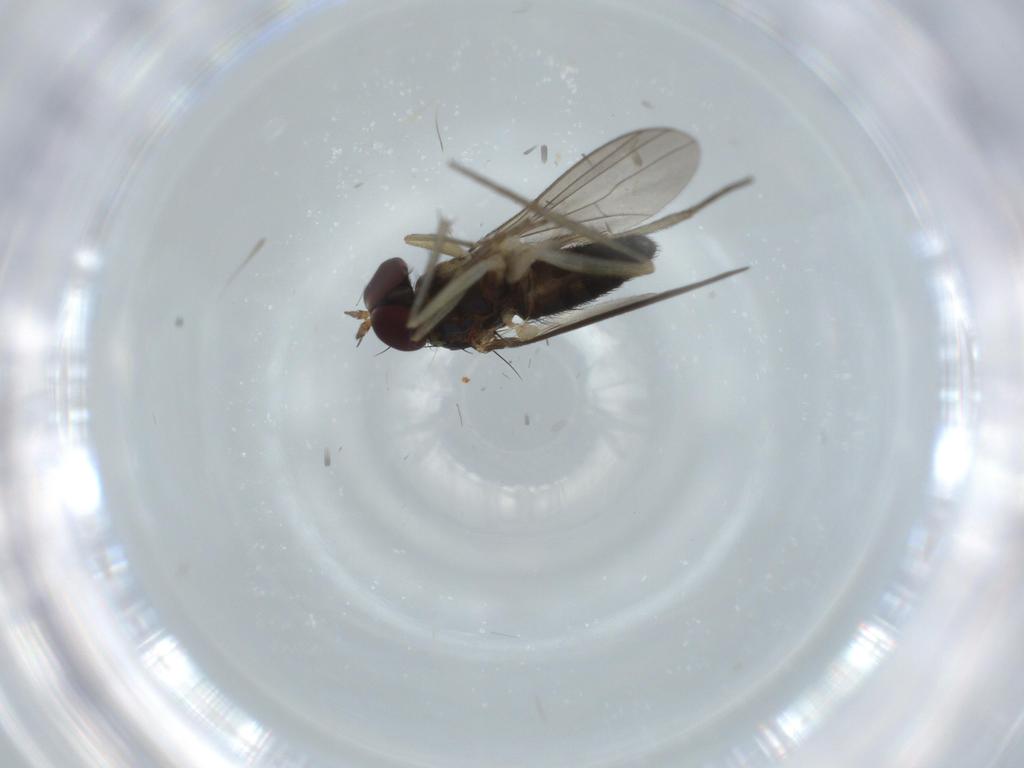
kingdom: Animalia
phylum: Arthropoda
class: Insecta
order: Diptera
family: Dolichopodidae
